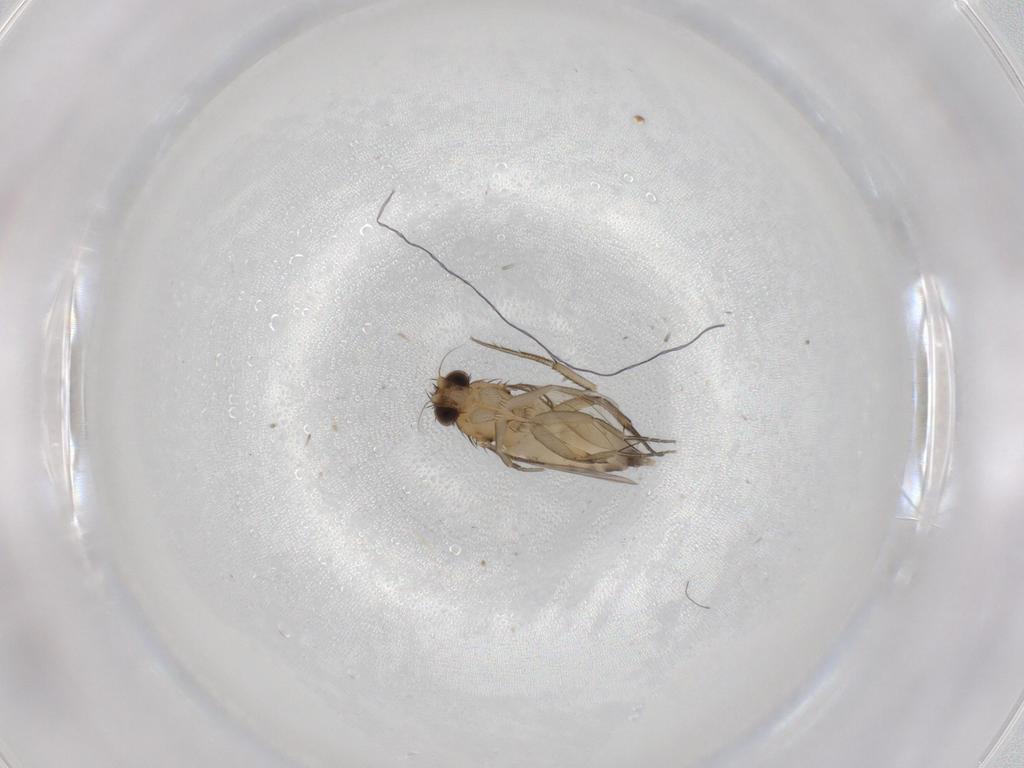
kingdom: Animalia
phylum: Arthropoda
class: Insecta
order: Diptera
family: Phoridae
